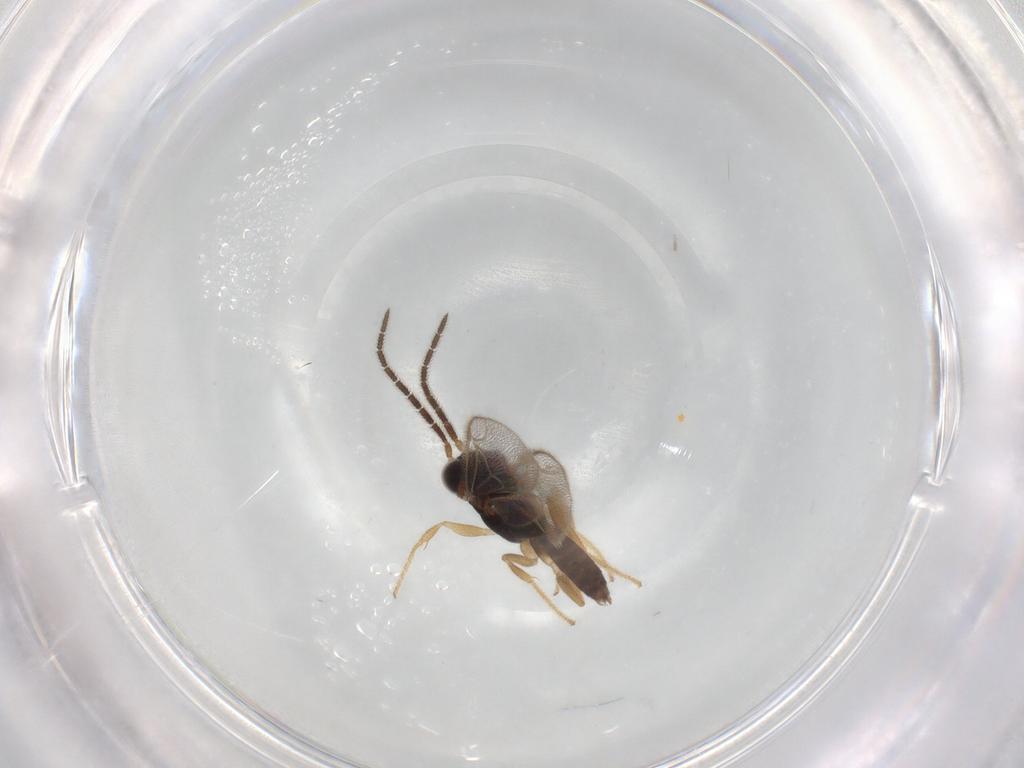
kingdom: Animalia
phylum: Arthropoda
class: Insecta
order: Hymenoptera
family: Dryinidae
